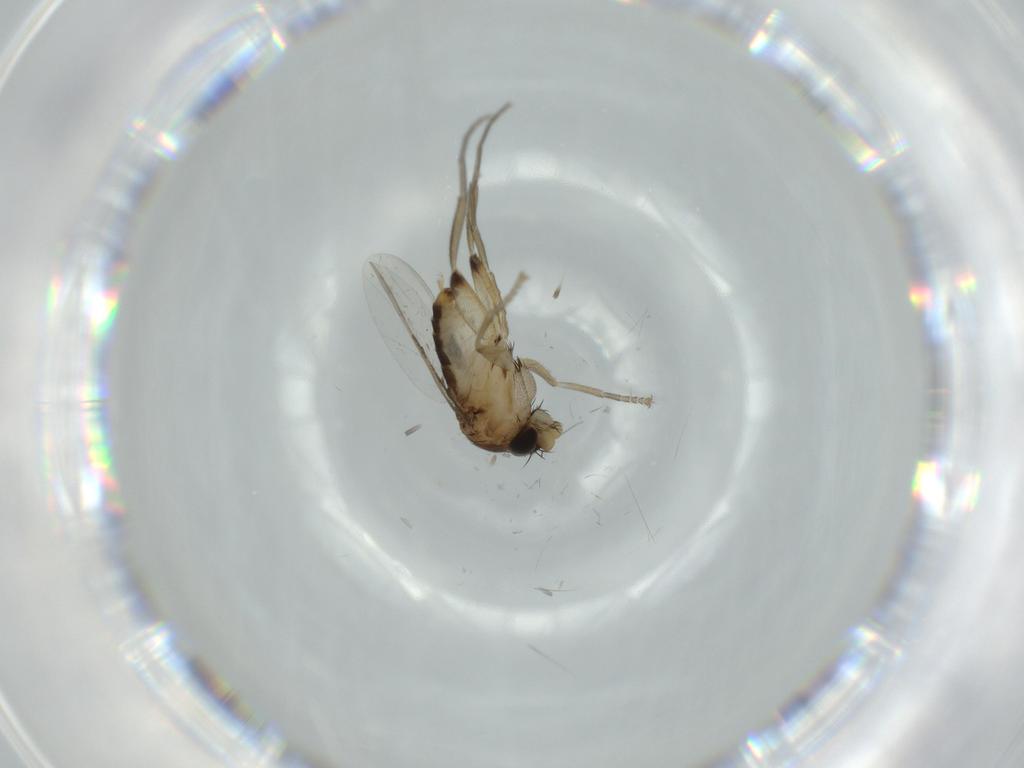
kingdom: Animalia
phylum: Arthropoda
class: Insecta
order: Diptera
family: Phoridae
